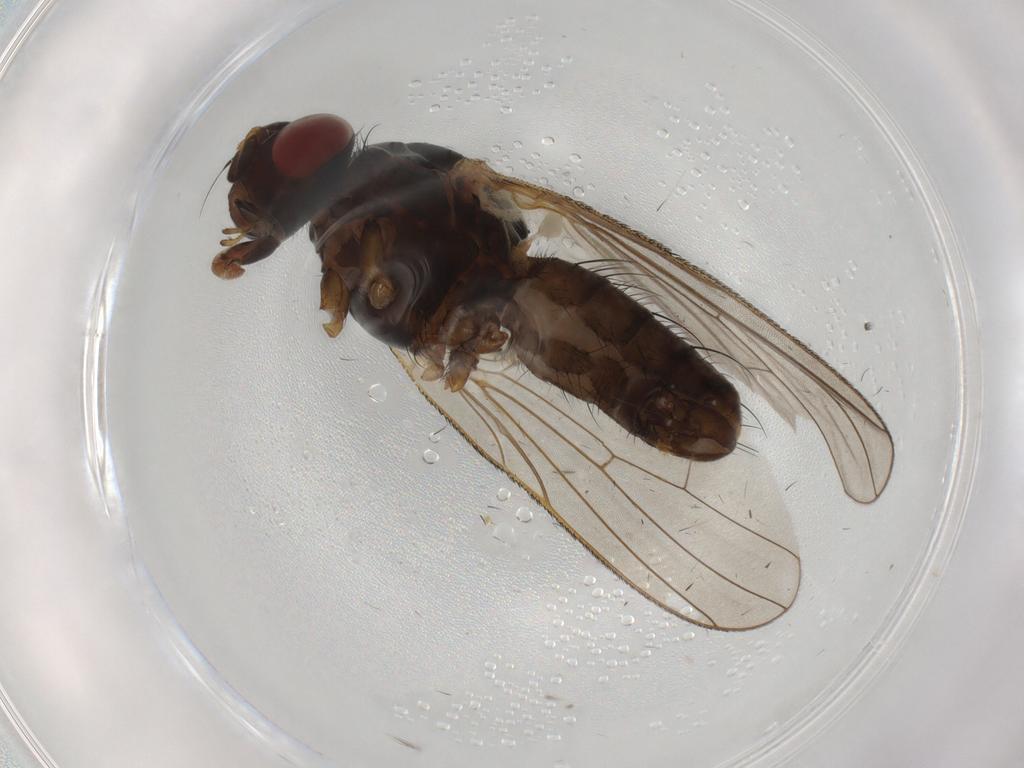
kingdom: Animalia
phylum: Arthropoda
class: Insecta
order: Diptera
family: Anthomyiidae
